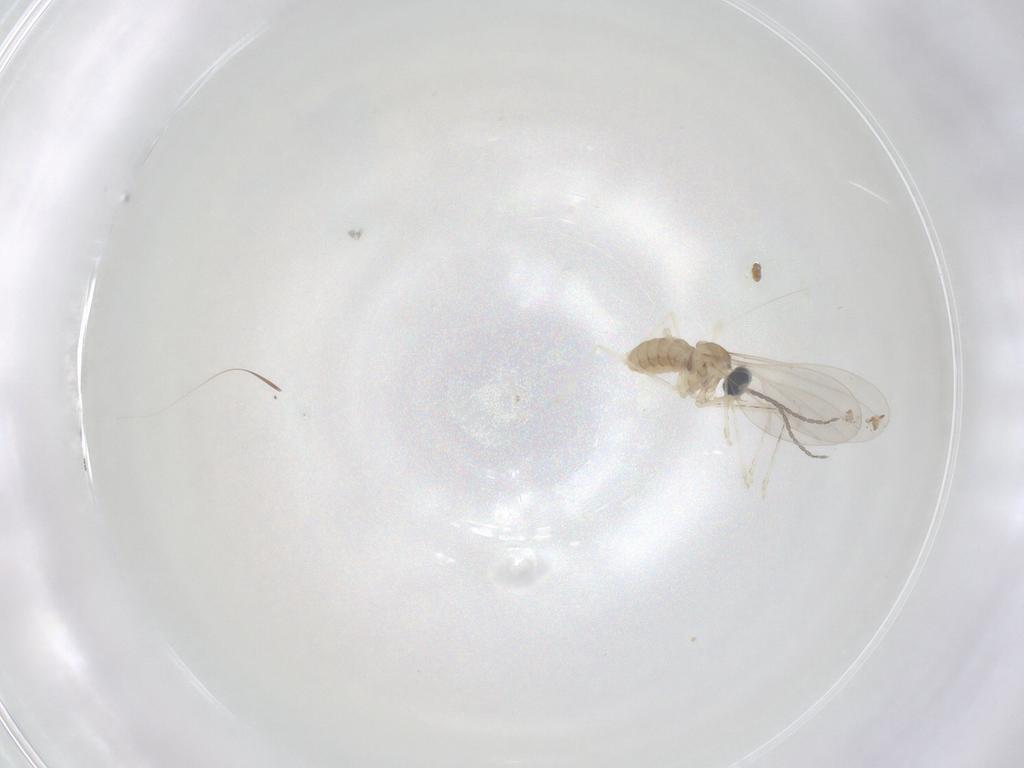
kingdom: Animalia
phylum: Arthropoda
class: Insecta
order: Diptera
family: Cecidomyiidae
